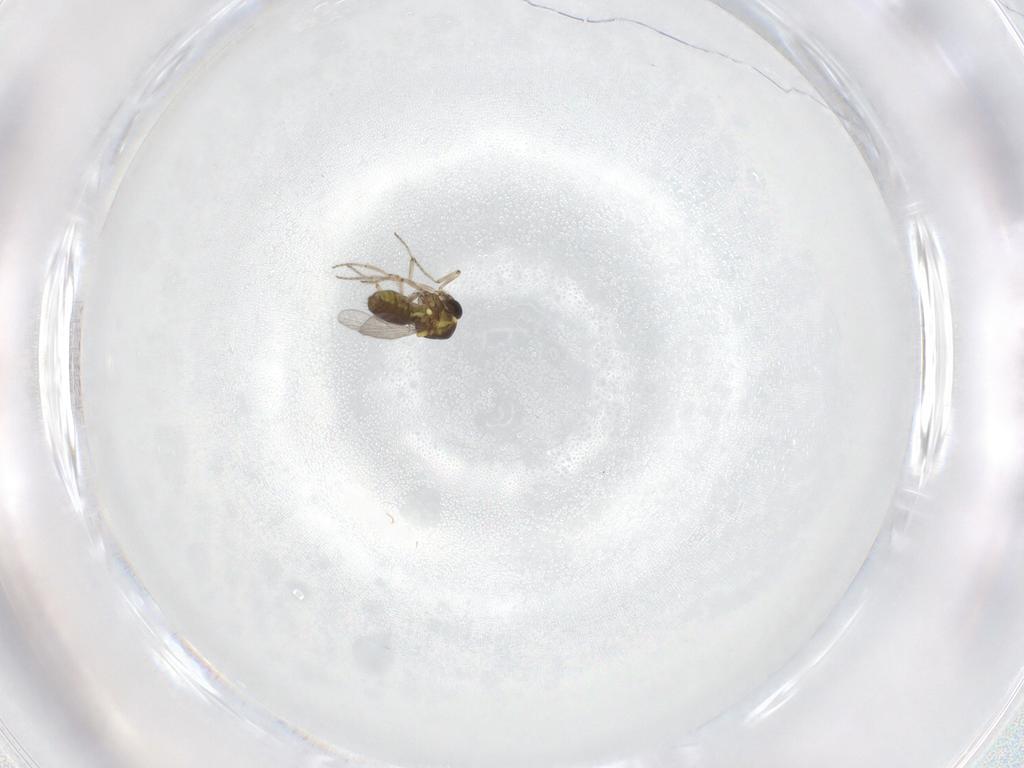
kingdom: Animalia
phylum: Arthropoda
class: Insecta
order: Diptera
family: Ceratopogonidae
